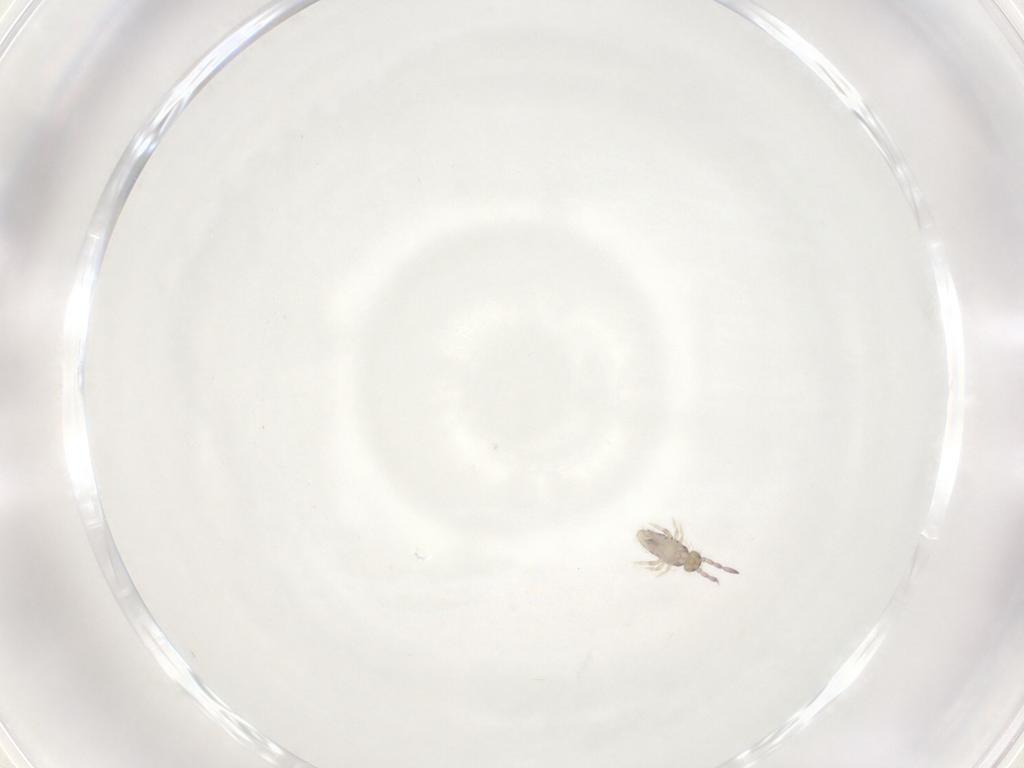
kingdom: Animalia
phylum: Arthropoda
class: Collembola
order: Entomobryomorpha
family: Entomobryidae
